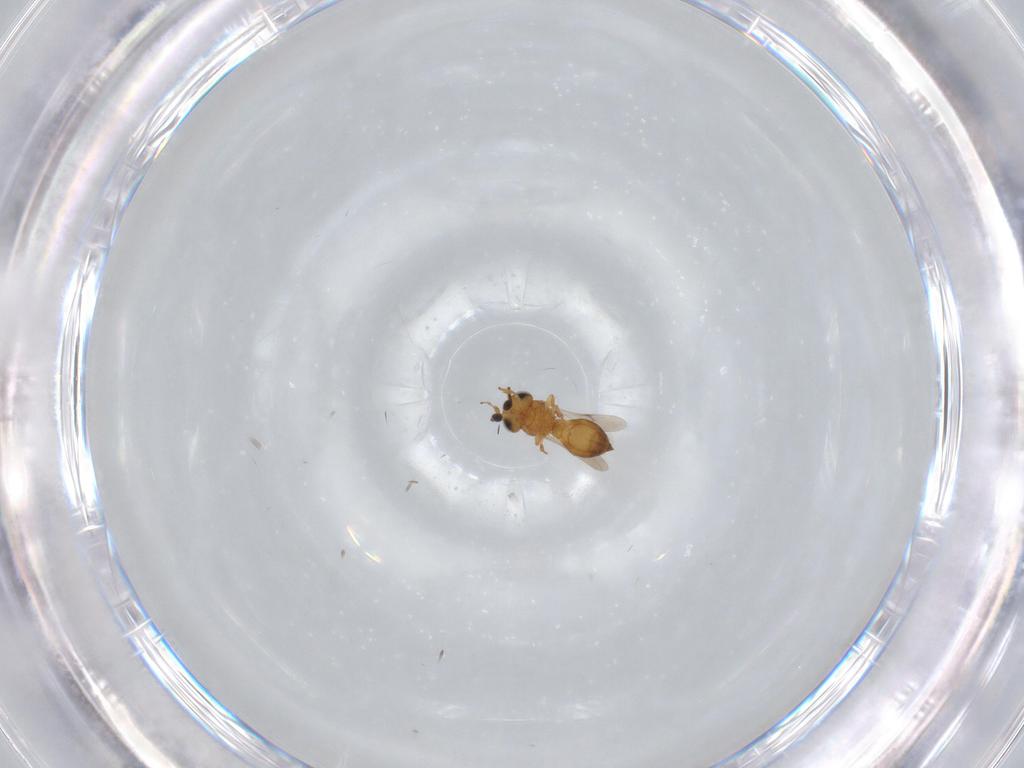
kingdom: Animalia
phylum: Arthropoda
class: Insecta
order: Hymenoptera
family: Scelionidae
